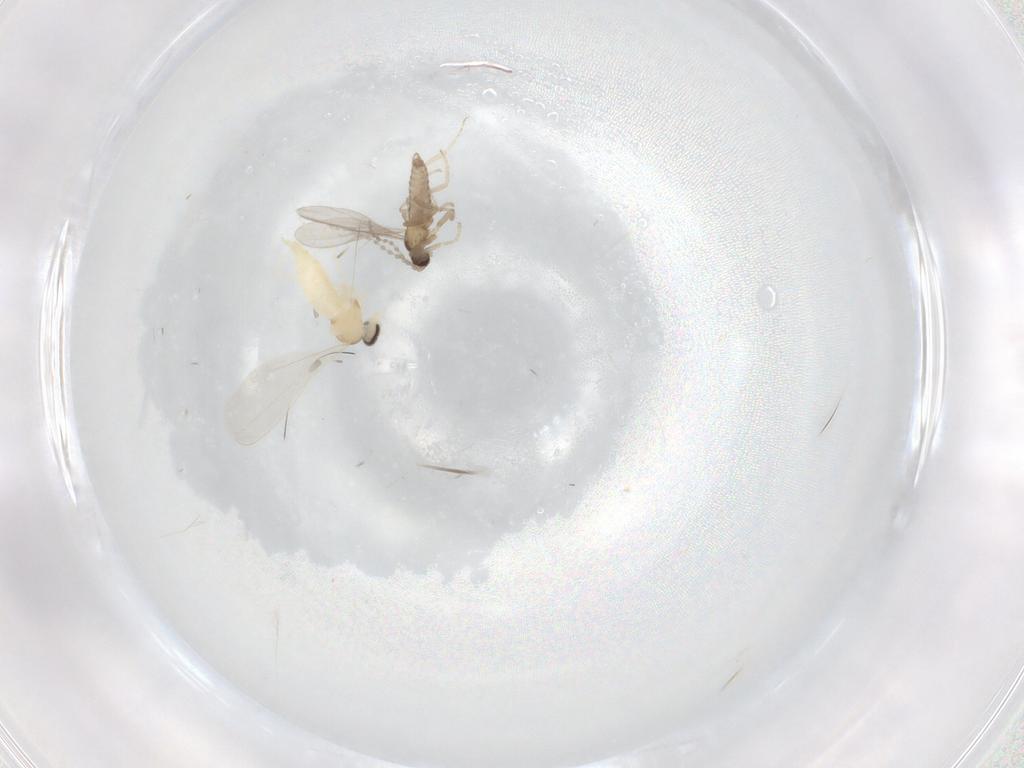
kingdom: Animalia
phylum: Arthropoda
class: Insecta
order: Diptera
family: Cecidomyiidae
